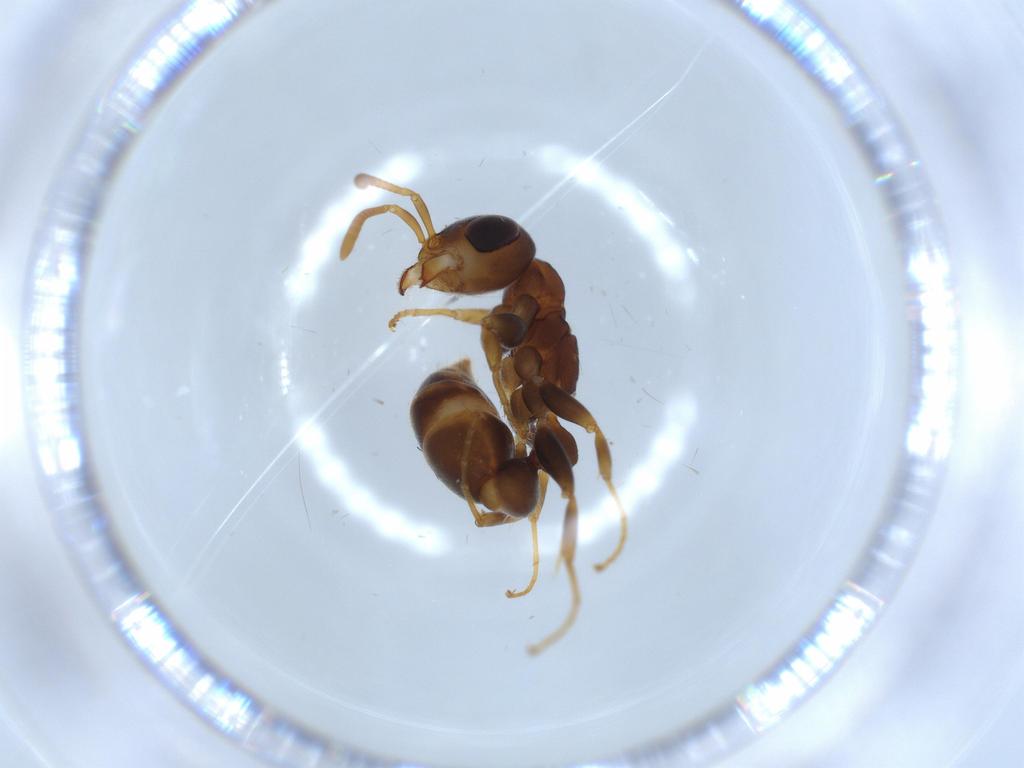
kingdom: Animalia
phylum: Arthropoda
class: Insecta
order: Hymenoptera
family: Formicidae
